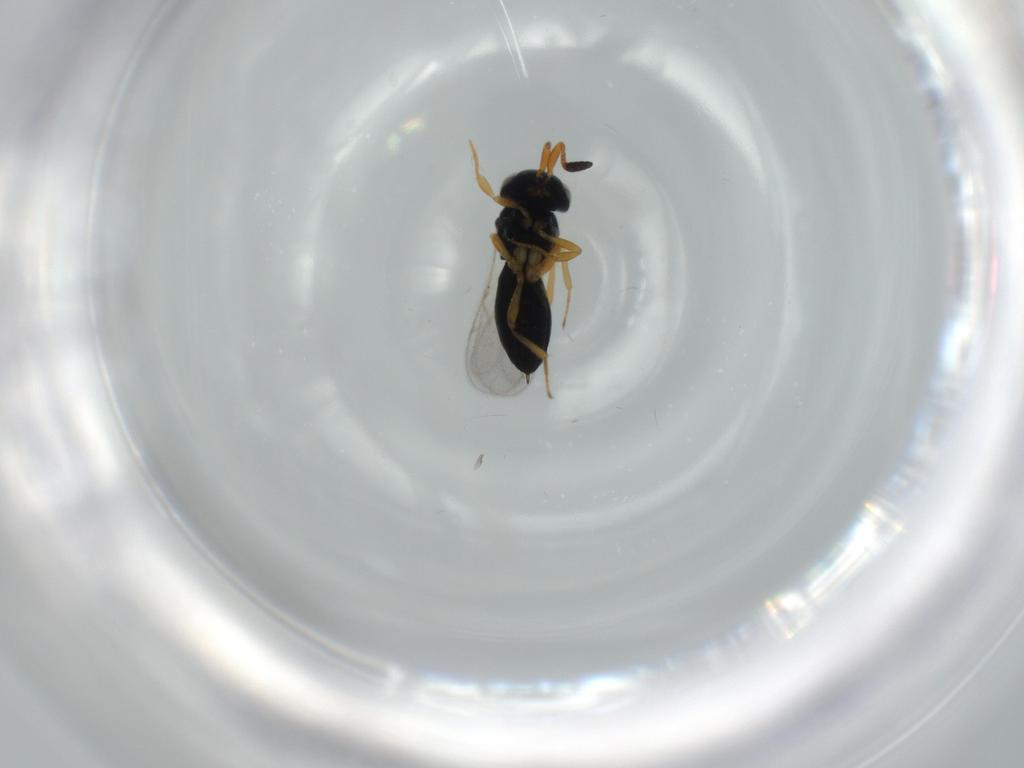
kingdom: Animalia
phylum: Arthropoda
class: Insecta
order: Hymenoptera
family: Scelionidae
